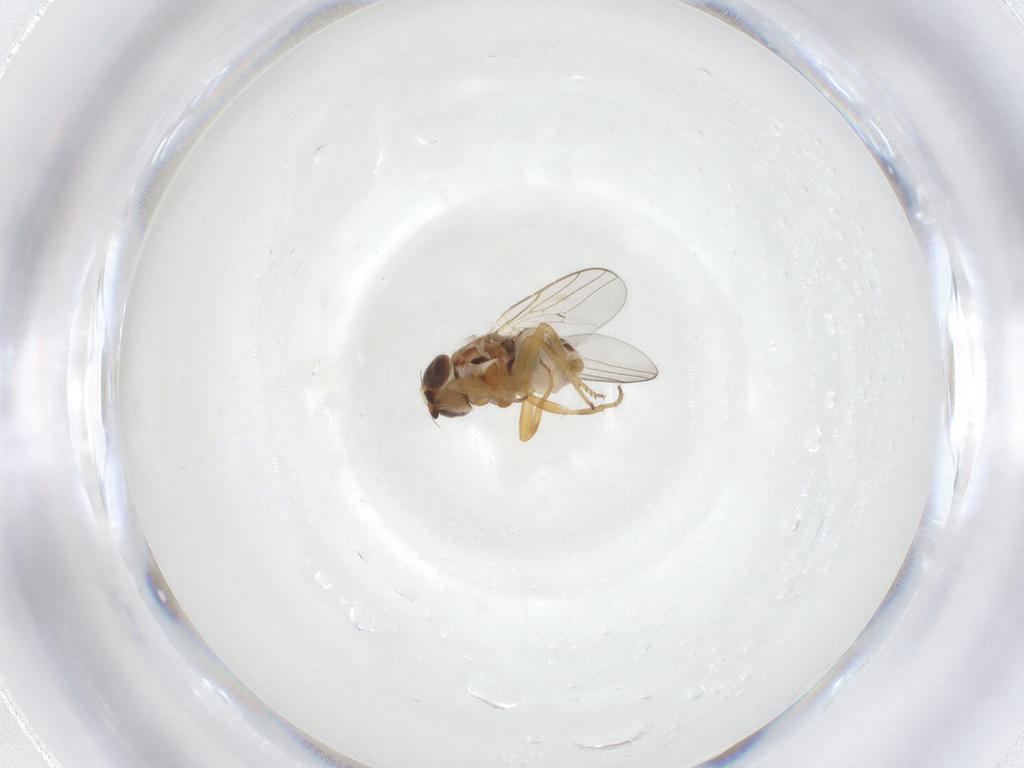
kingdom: Animalia
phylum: Arthropoda
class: Insecta
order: Diptera
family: Chloropidae
